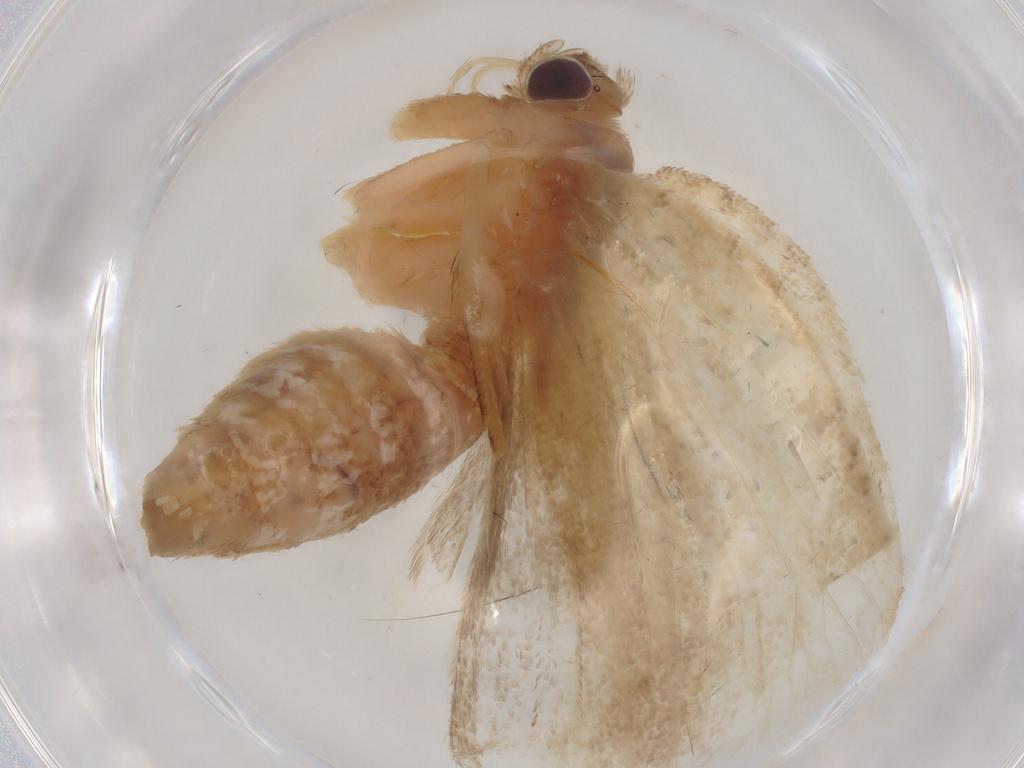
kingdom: Animalia
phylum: Arthropoda
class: Insecta
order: Lepidoptera
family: Tortricidae
